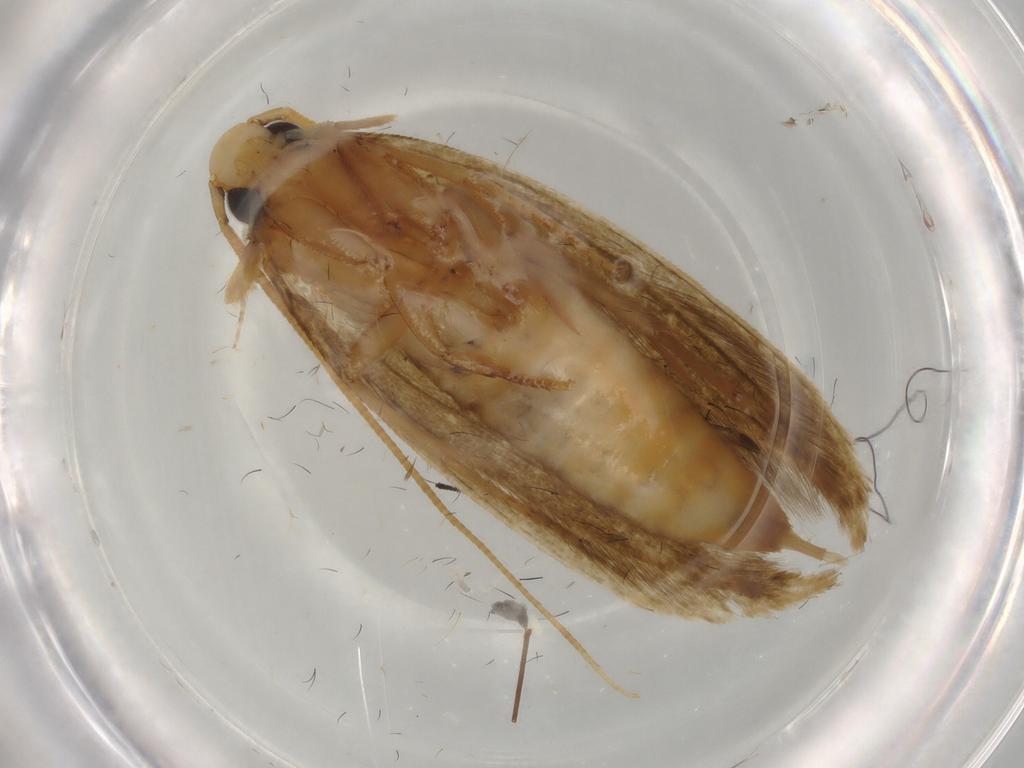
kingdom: Animalia
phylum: Arthropoda
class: Insecta
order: Lepidoptera
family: Tineidae
